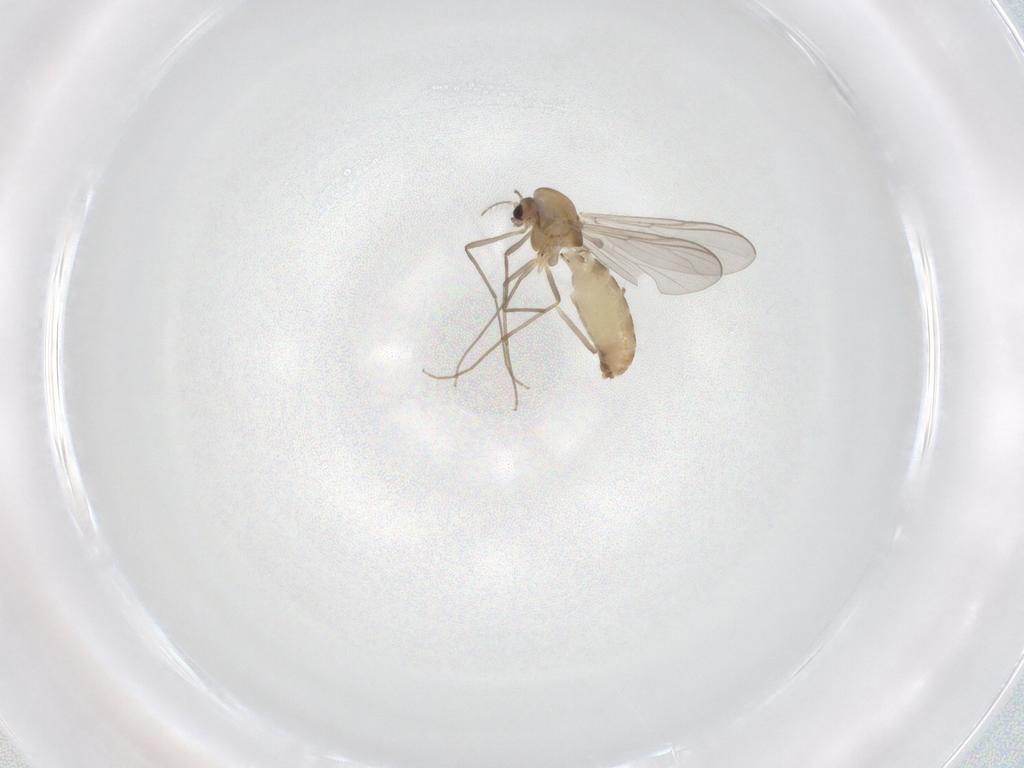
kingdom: Animalia
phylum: Arthropoda
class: Insecta
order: Diptera
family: Chironomidae
